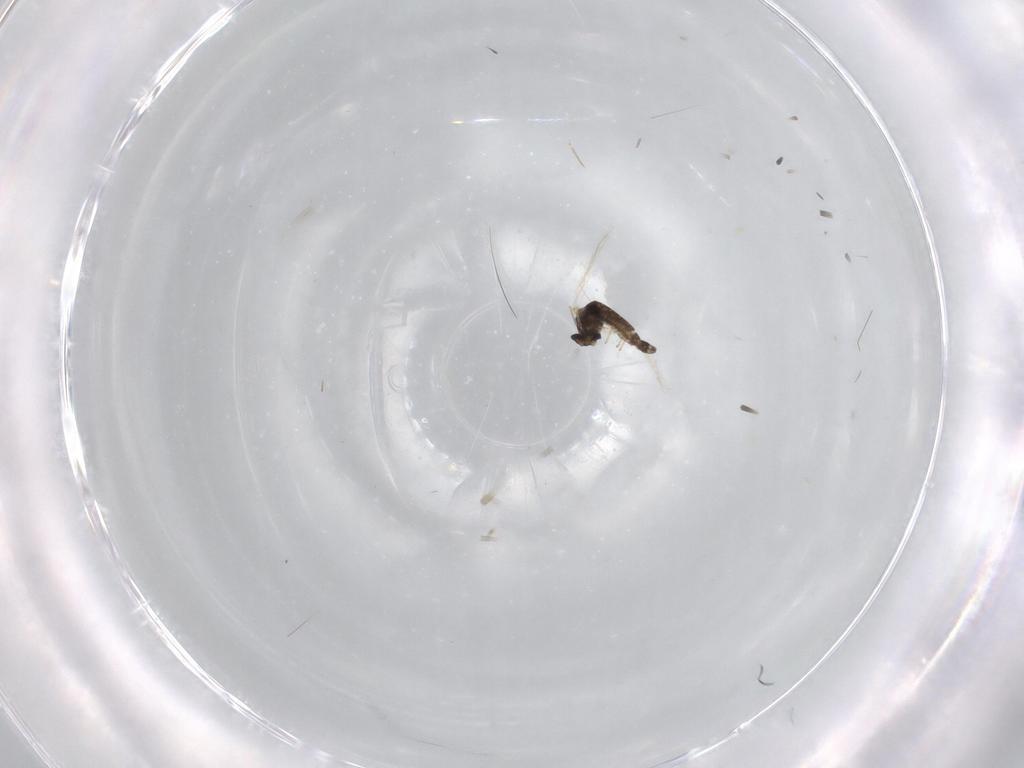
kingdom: Animalia
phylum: Arthropoda
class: Insecta
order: Diptera
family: Chironomidae
